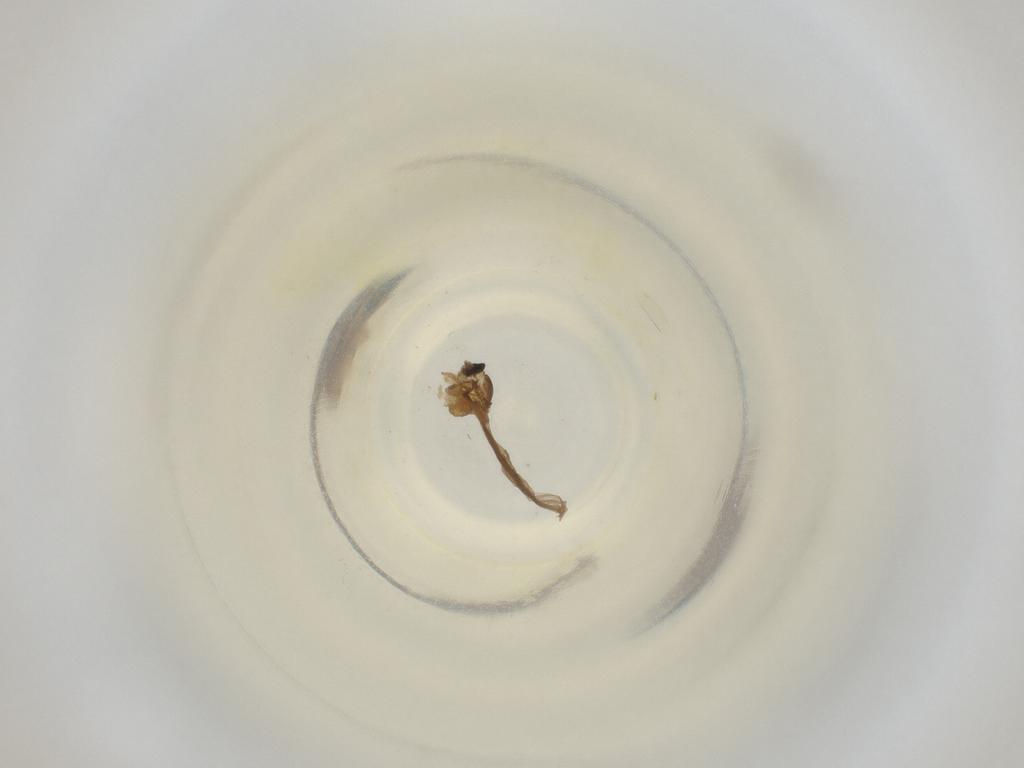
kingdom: Animalia
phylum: Arthropoda
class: Insecta
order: Diptera
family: Cecidomyiidae
